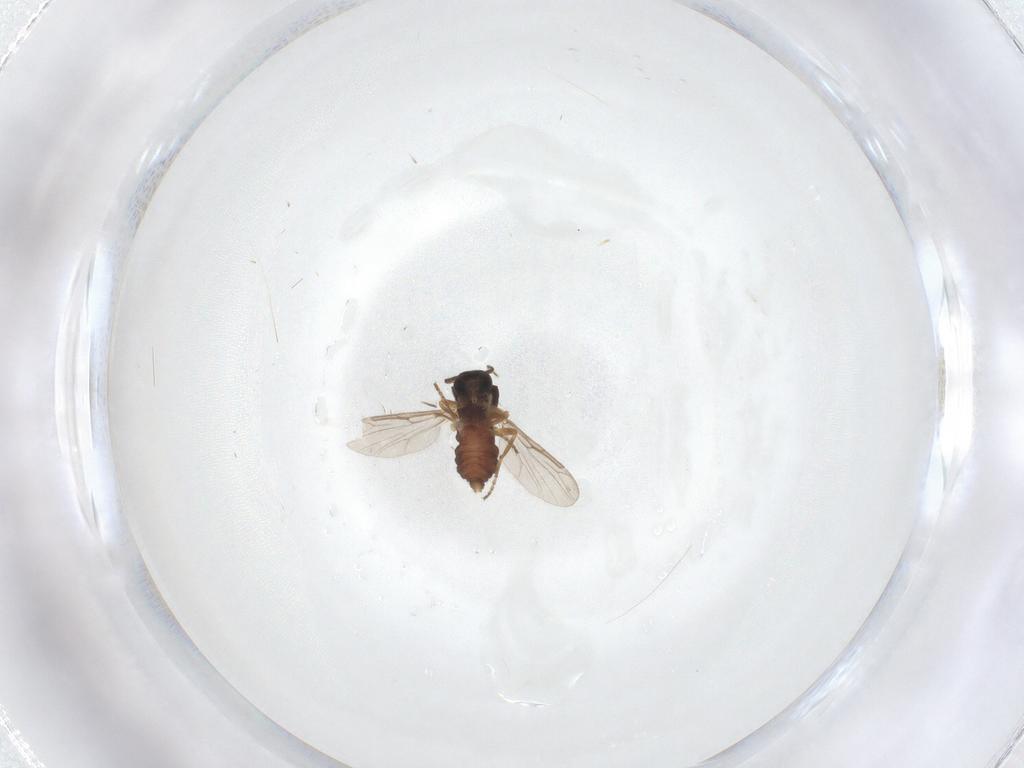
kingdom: Animalia
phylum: Arthropoda
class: Insecta
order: Diptera
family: Ceratopogonidae
